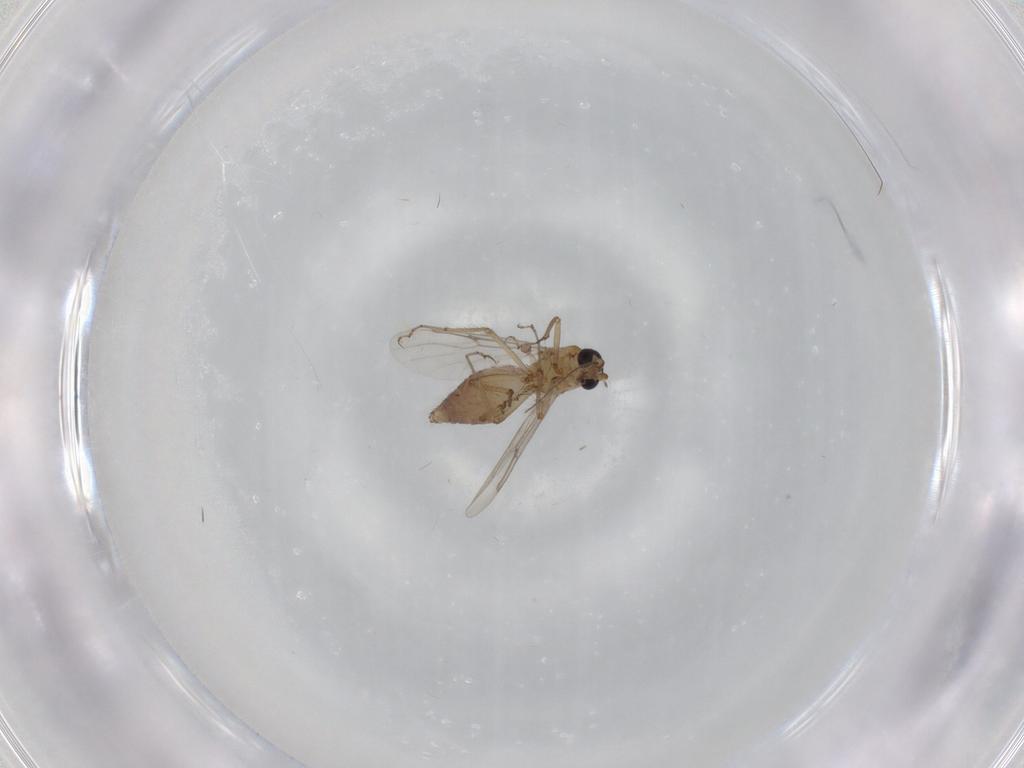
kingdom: Animalia
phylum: Arthropoda
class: Insecta
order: Diptera
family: Ceratopogonidae
